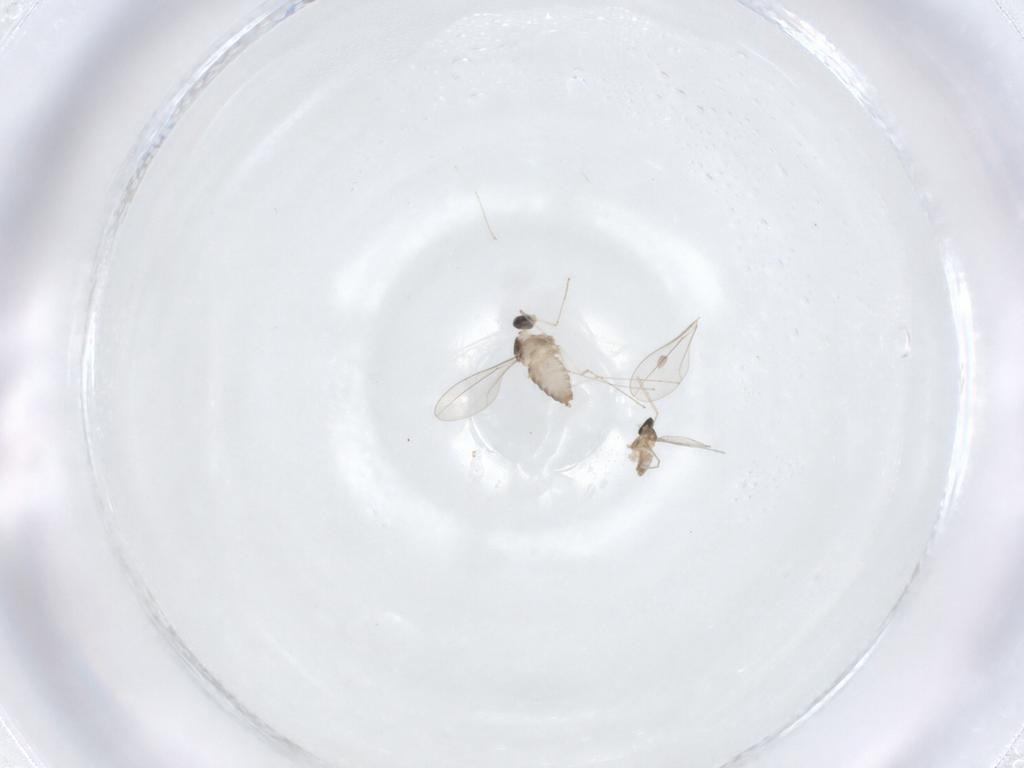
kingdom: Animalia
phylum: Arthropoda
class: Insecta
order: Diptera
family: Cecidomyiidae
